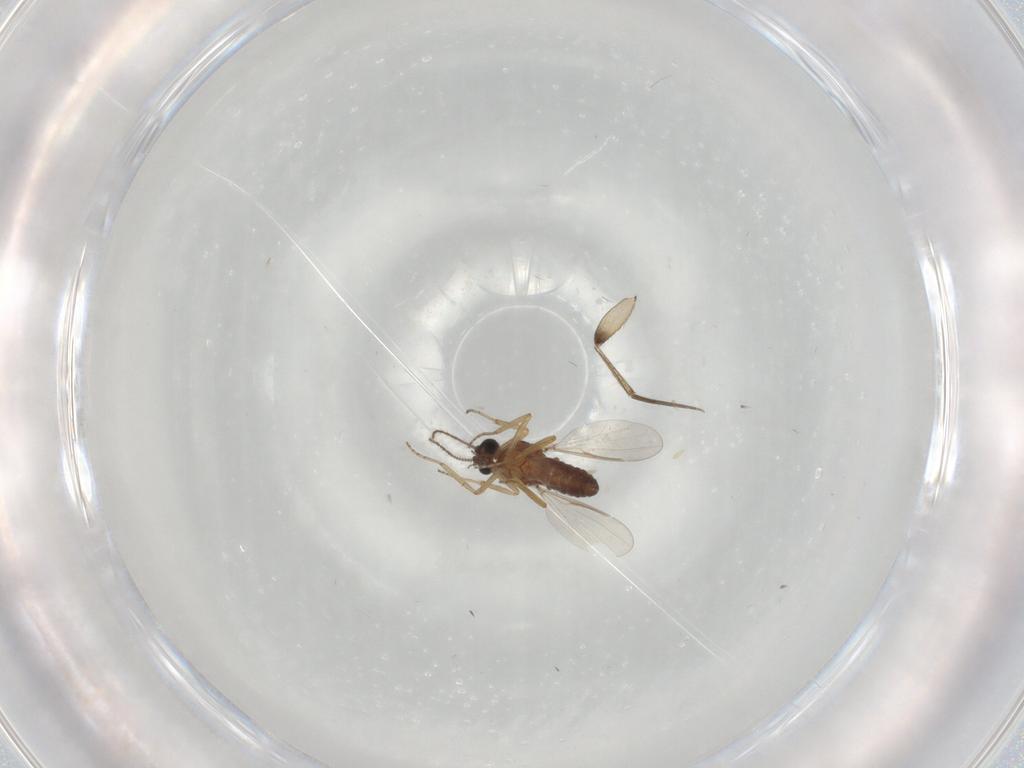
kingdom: Animalia
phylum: Arthropoda
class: Insecta
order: Diptera
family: Ceratopogonidae
